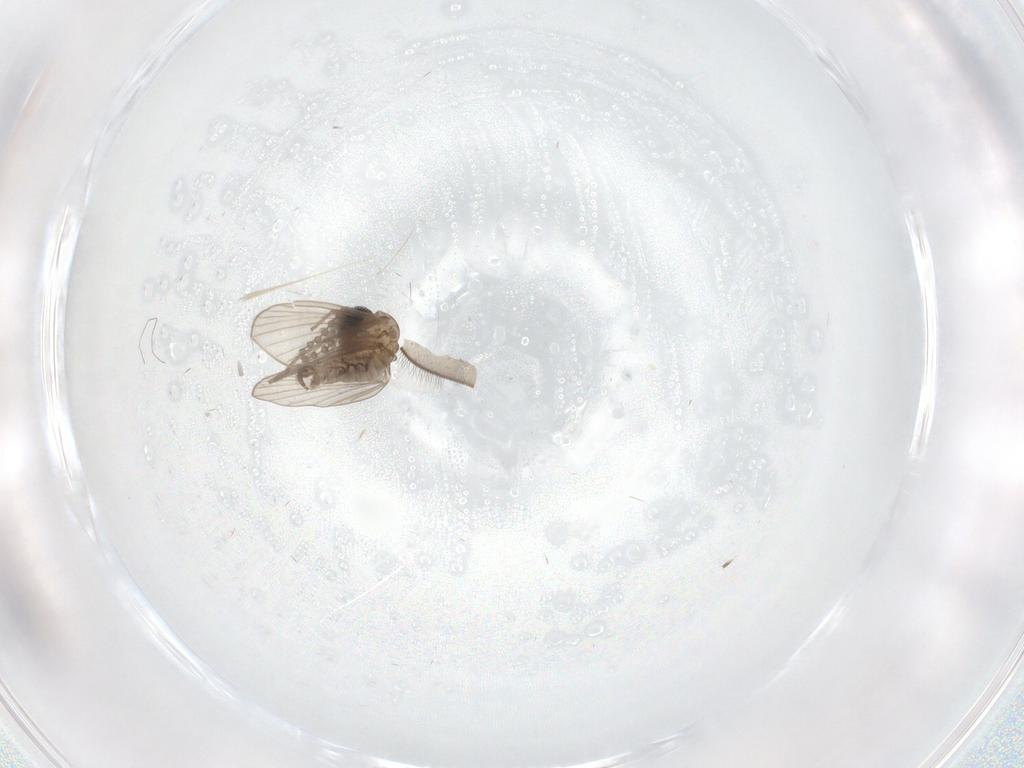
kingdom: Animalia
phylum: Arthropoda
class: Insecta
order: Diptera
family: Psychodidae
